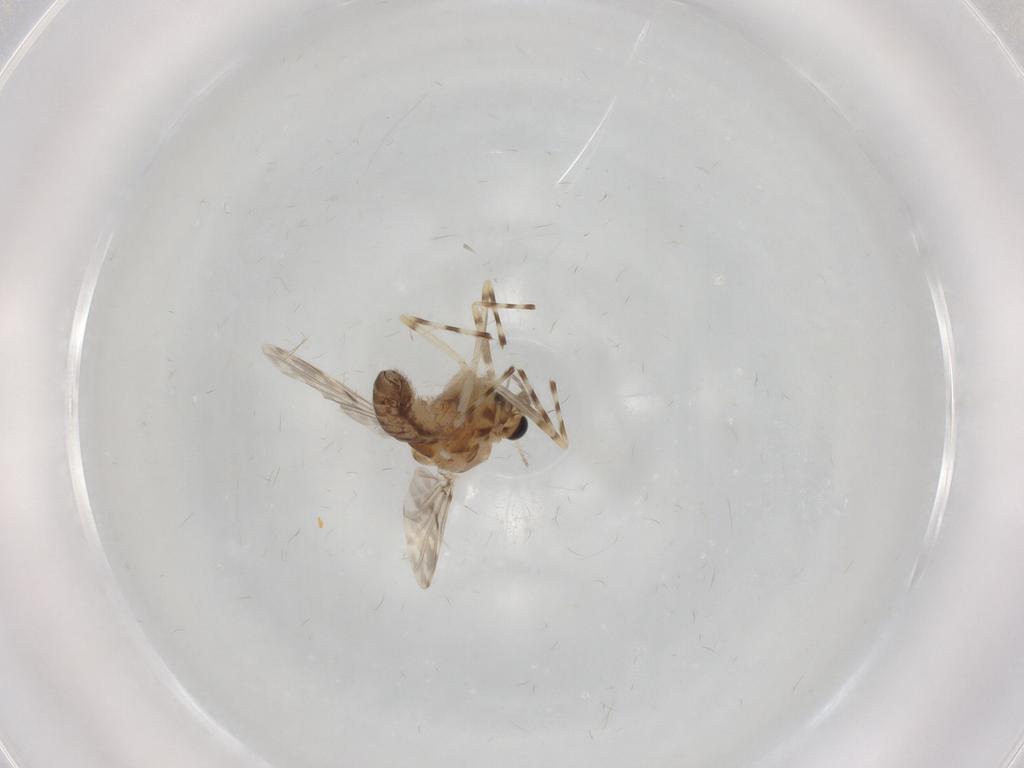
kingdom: Animalia
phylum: Arthropoda
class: Insecta
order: Diptera
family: Chironomidae
